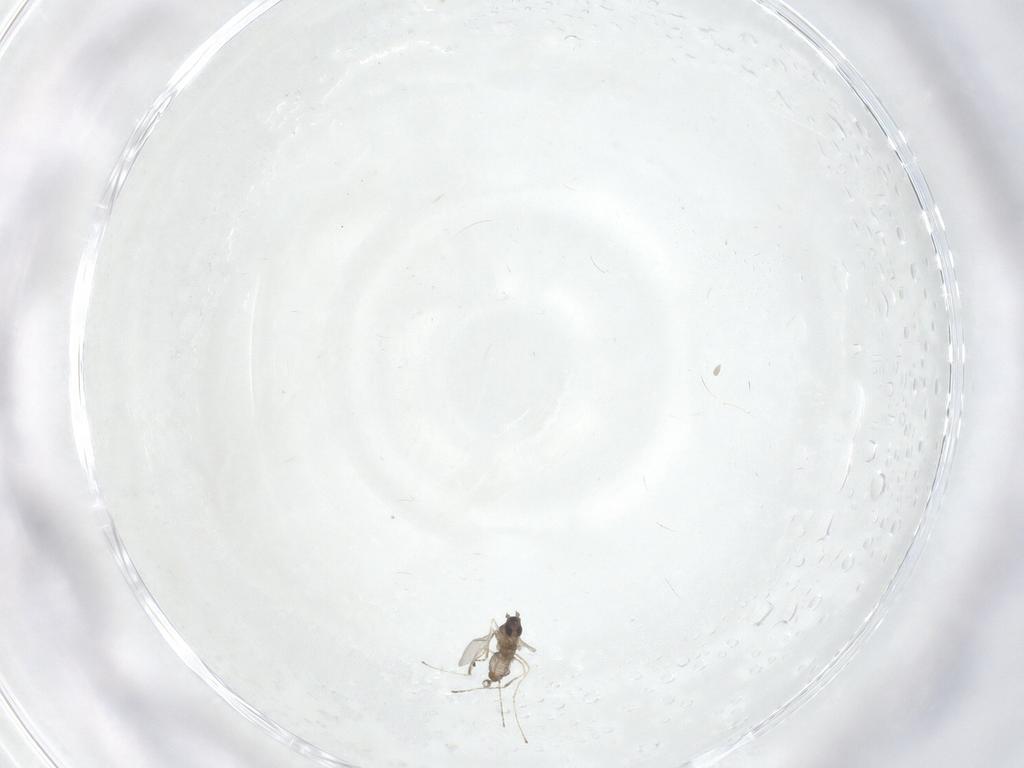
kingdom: Animalia
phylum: Arthropoda
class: Insecta
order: Diptera
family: Cecidomyiidae
